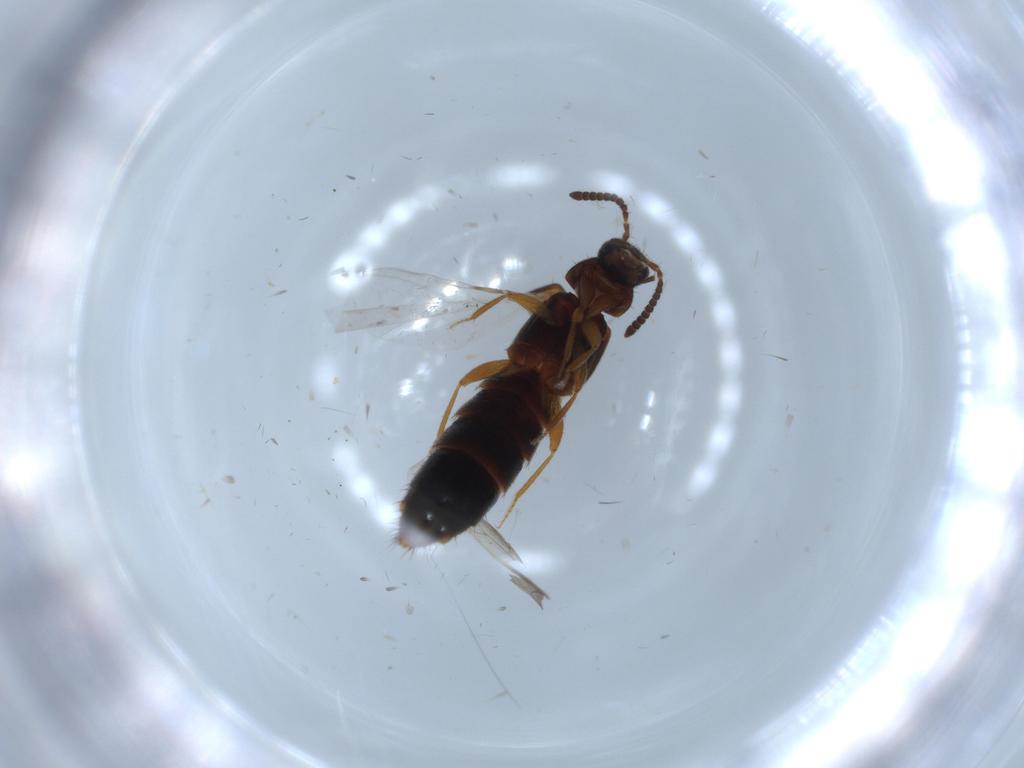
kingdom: Animalia
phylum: Arthropoda
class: Insecta
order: Coleoptera
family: Cantharidae
